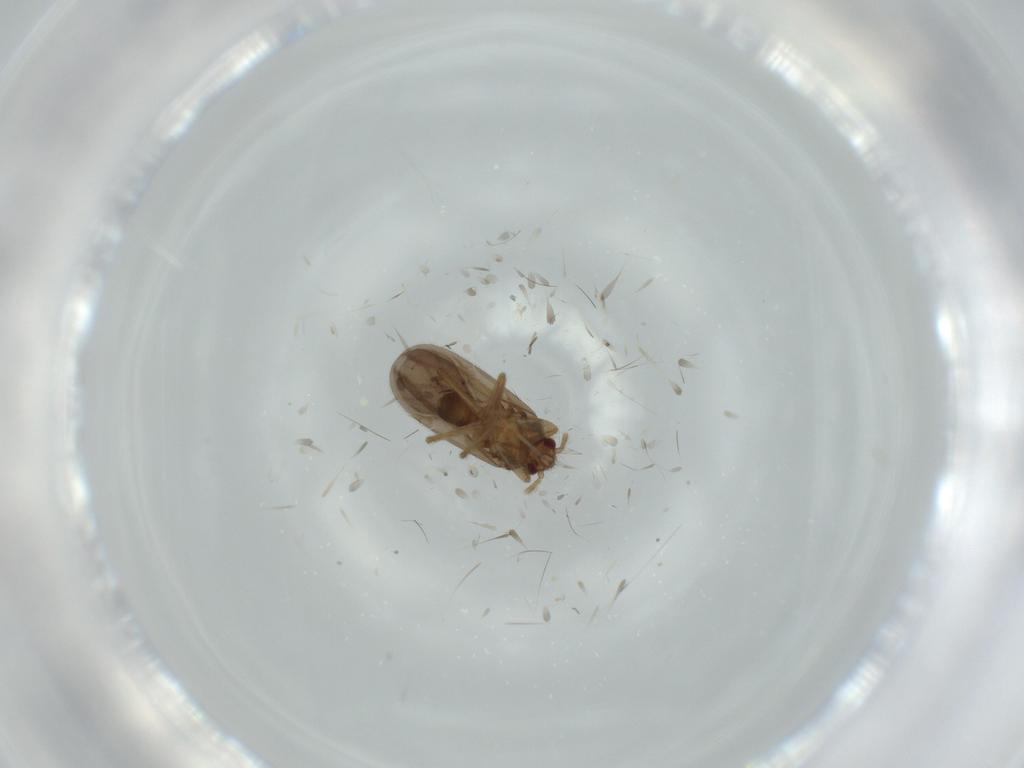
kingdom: Animalia
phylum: Arthropoda
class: Insecta
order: Hemiptera
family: Ceratocombidae
